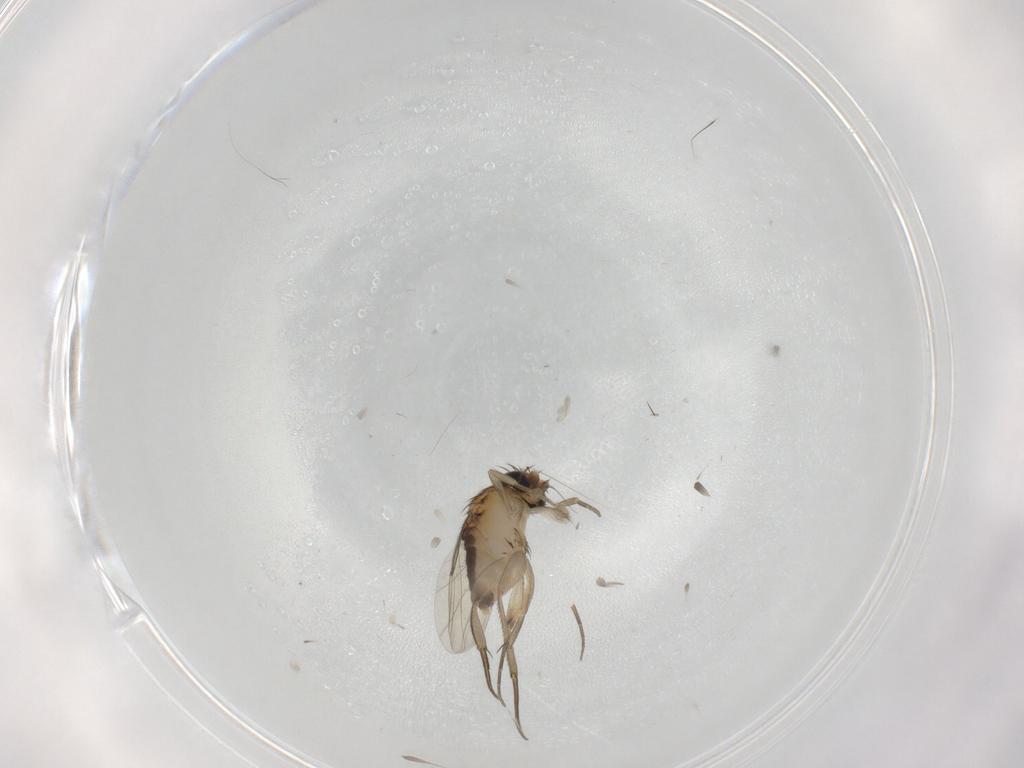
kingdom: Animalia
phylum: Arthropoda
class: Insecta
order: Diptera
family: Phoridae
